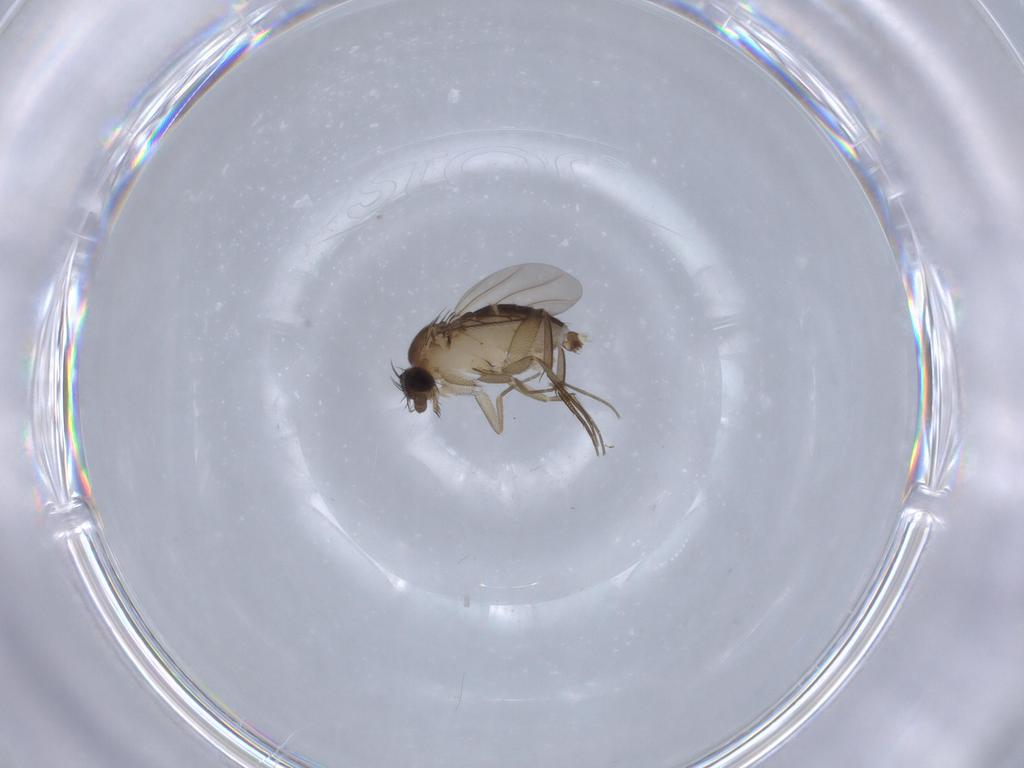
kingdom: Animalia
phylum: Arthropoda
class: Insecta
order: Diptera
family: Phoridae
